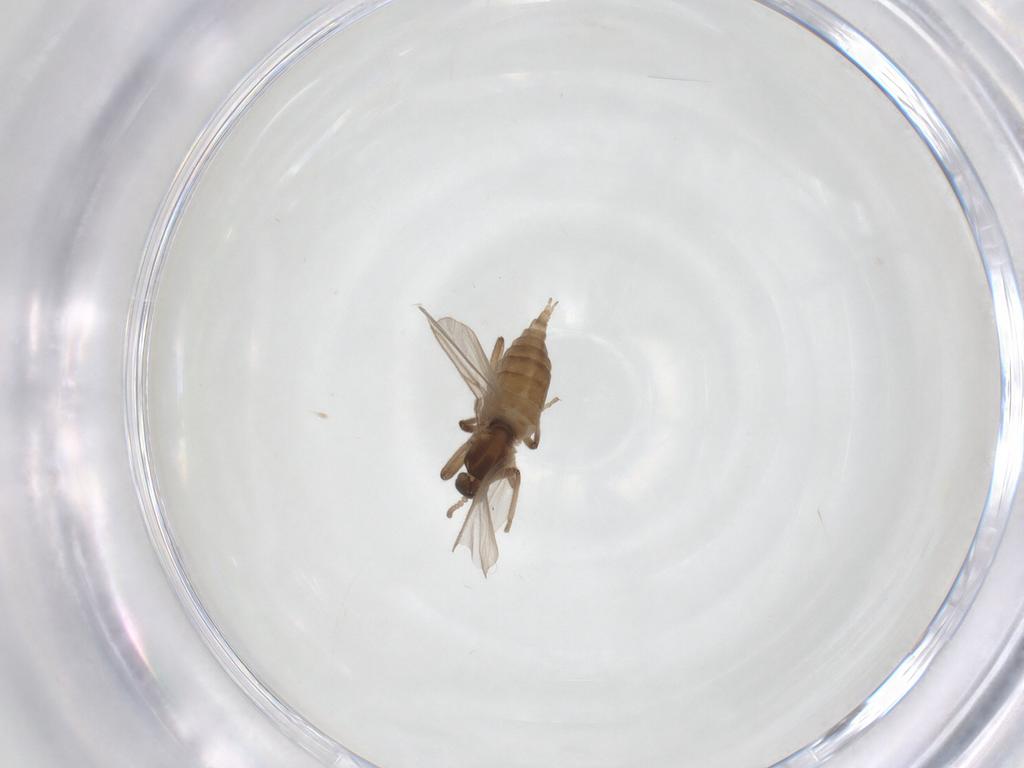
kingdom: Animalia
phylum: Arthropoda
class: Insecta
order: Diptera
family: Cecidomyiidae
